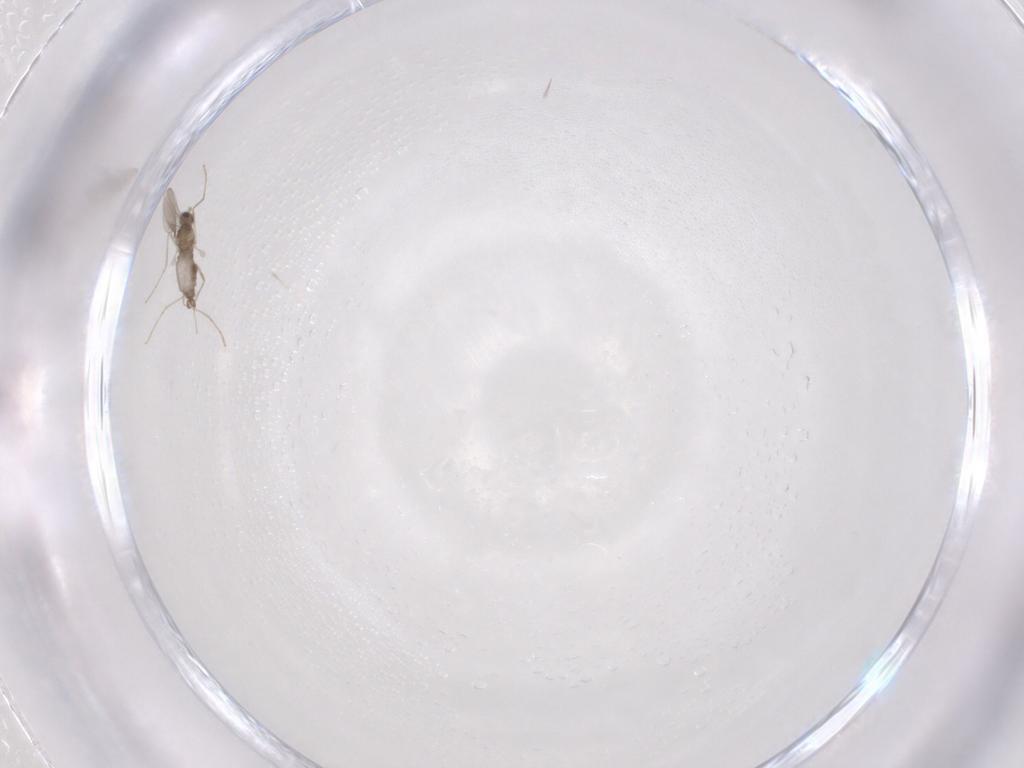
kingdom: Animalia
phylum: Arthropoda
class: Insecta
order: Diptera
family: Cecidomyiidae
